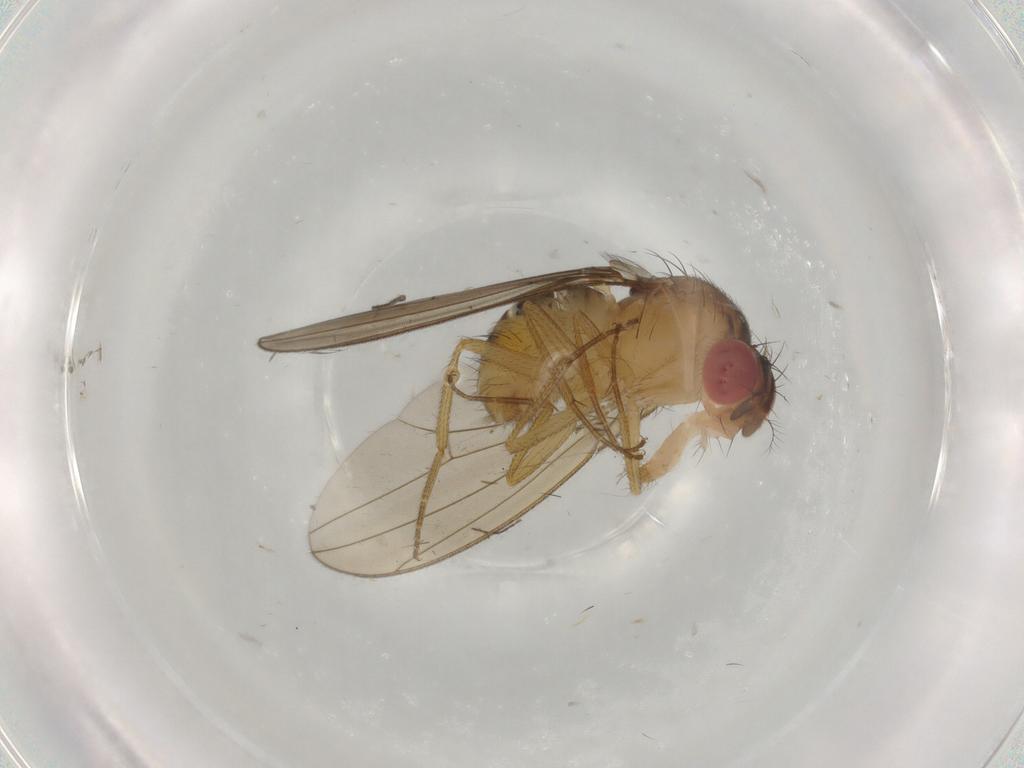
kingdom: Animalia
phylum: Arthropoda
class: Insecta
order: Diptera
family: Drosophilidae
